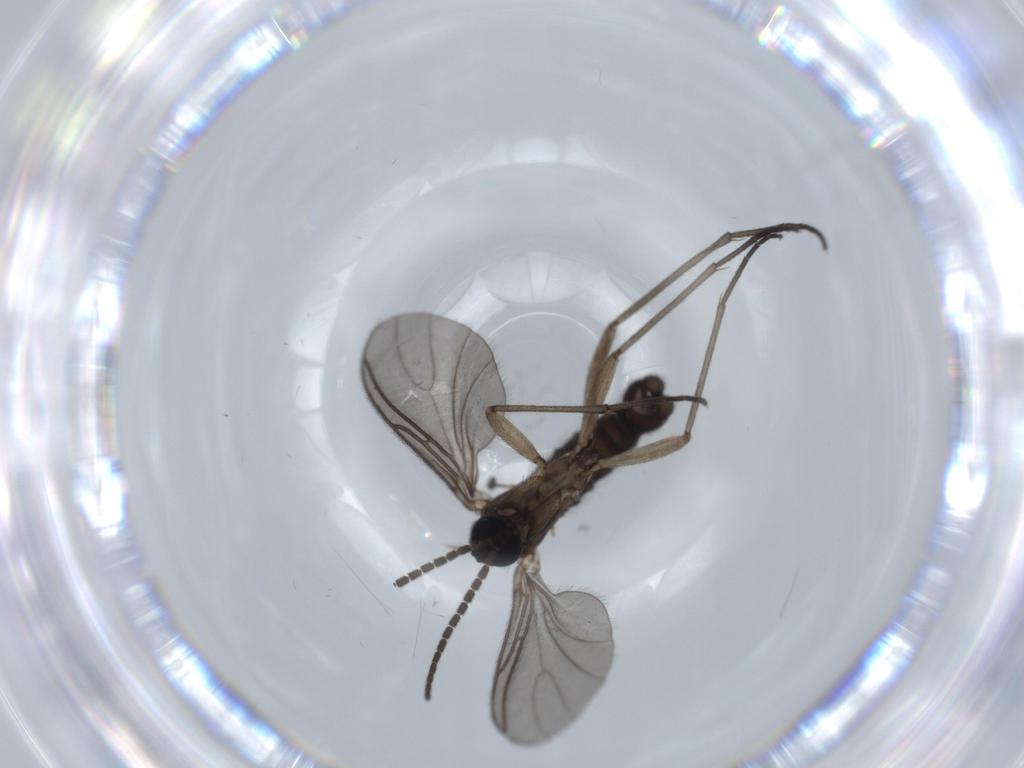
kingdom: Animalia
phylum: Arthropoda
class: Insecta
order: Diptera
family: Sciaridae
